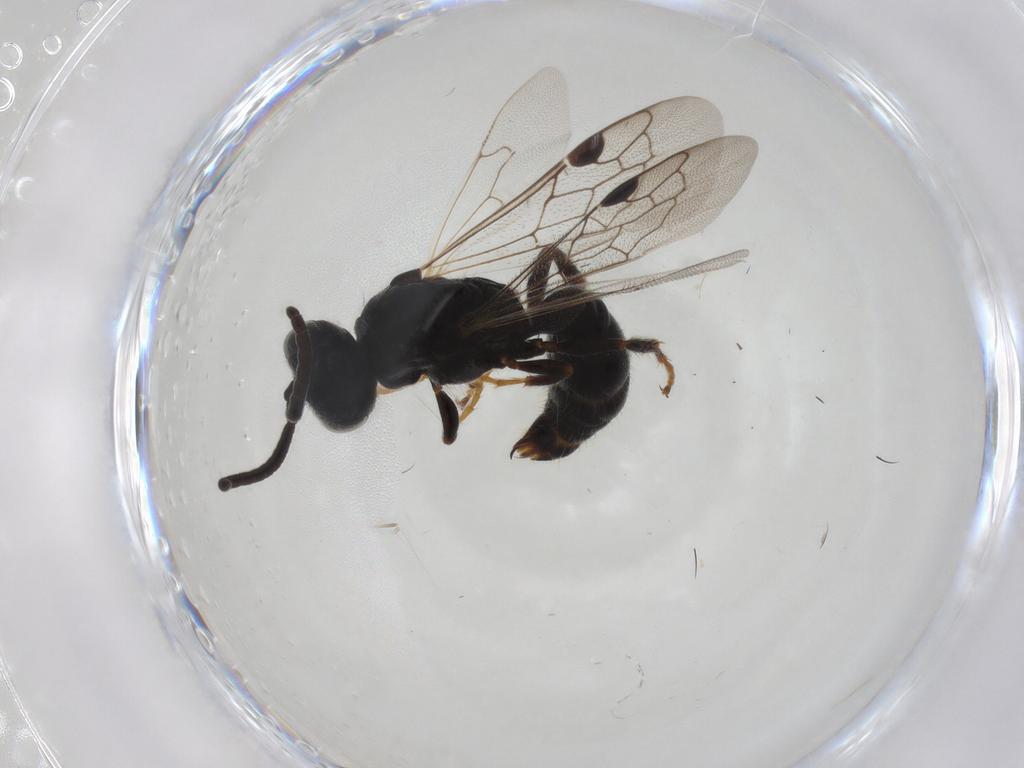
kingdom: Animalia
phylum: Arthropoda
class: Insecta
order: Hymenoptera
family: Tiphiidae
